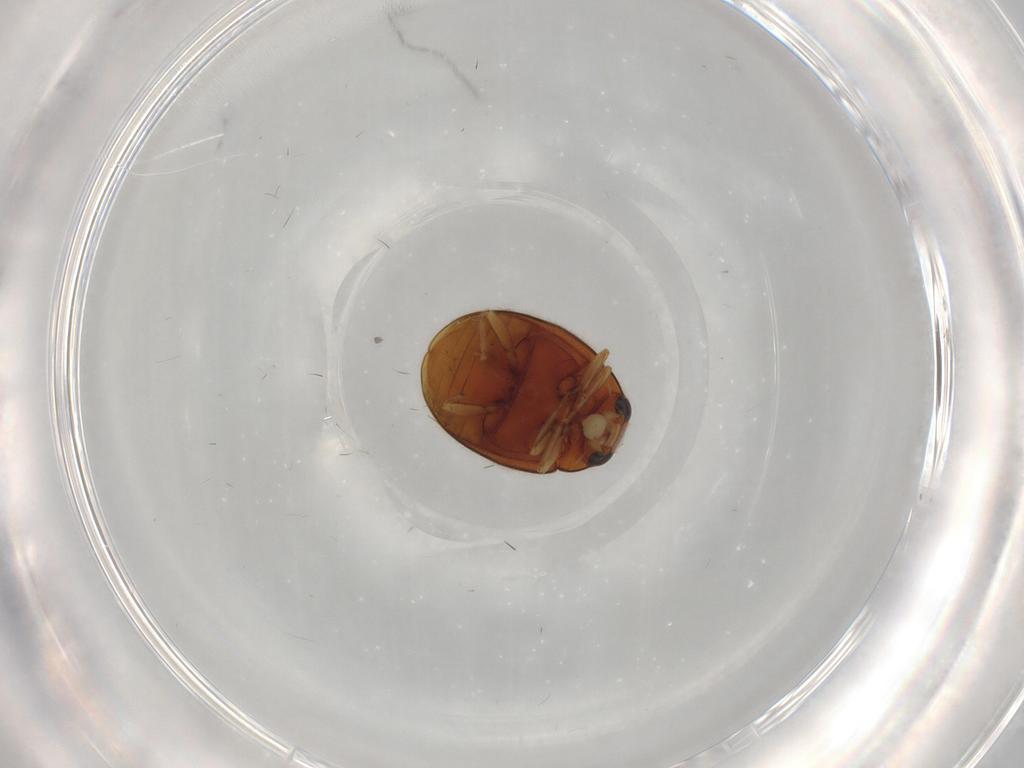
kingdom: Animalia
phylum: Arthropoda
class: Insecta
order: Coleoptera
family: Coccinellidae
